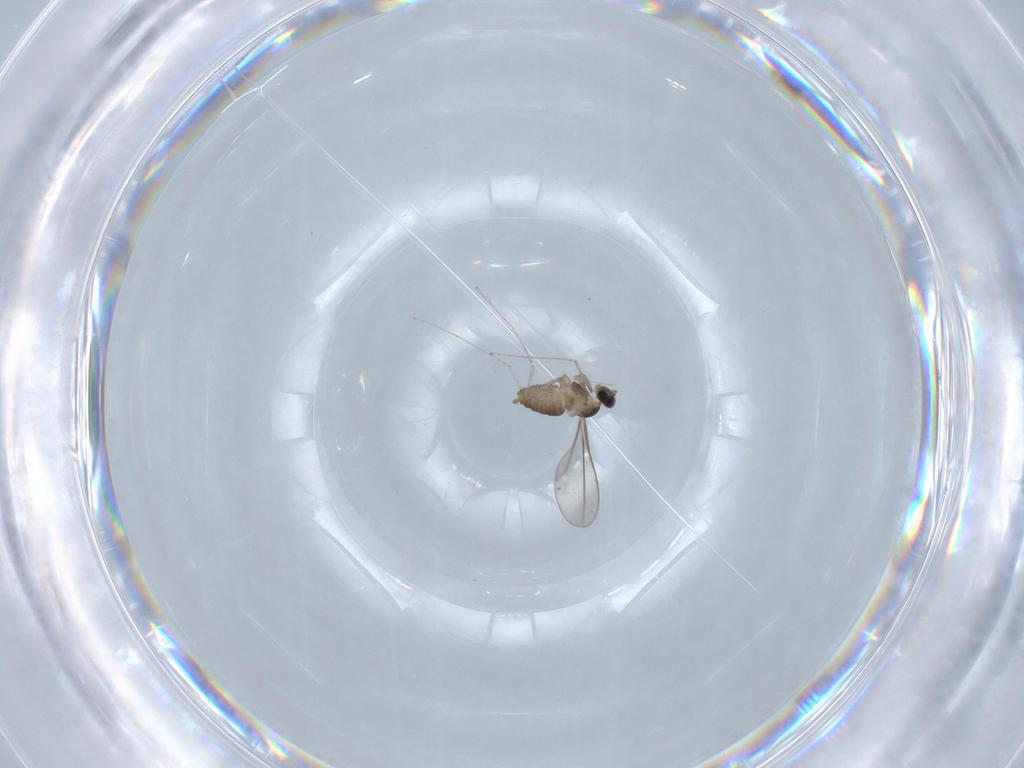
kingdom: Animalia
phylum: Arthropoda
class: Insecta
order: Diptera
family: Cecidomyiidae
